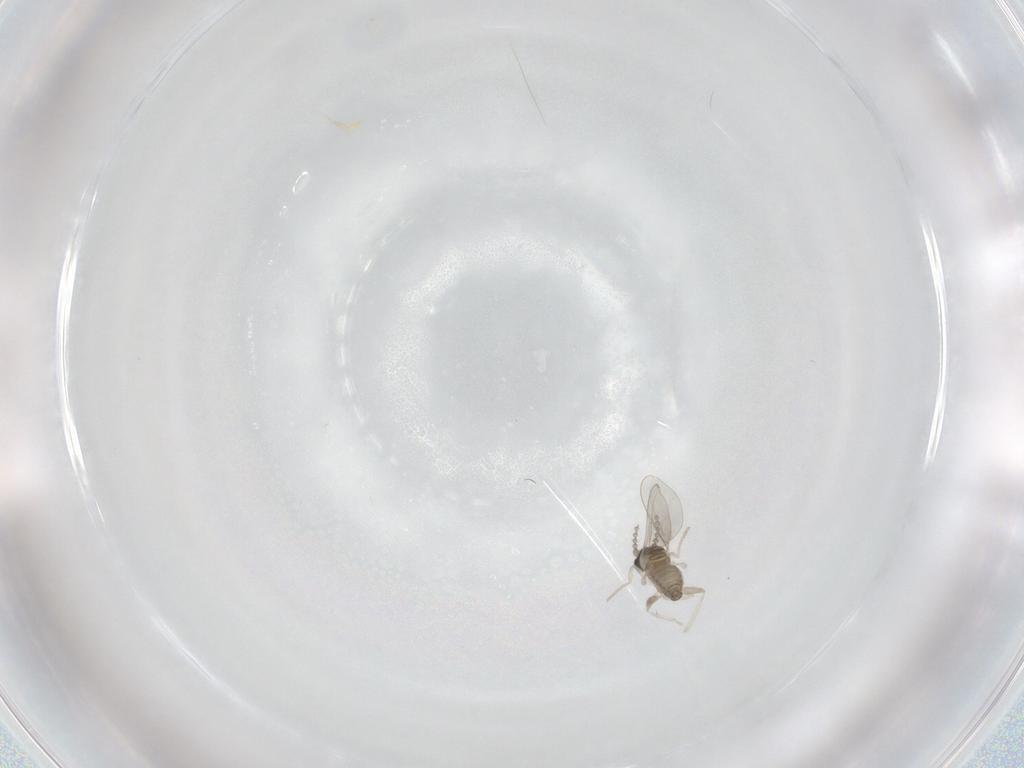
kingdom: Animalia
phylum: Arthropoda
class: Insecta
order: Diptera
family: Cecidomyiidae
